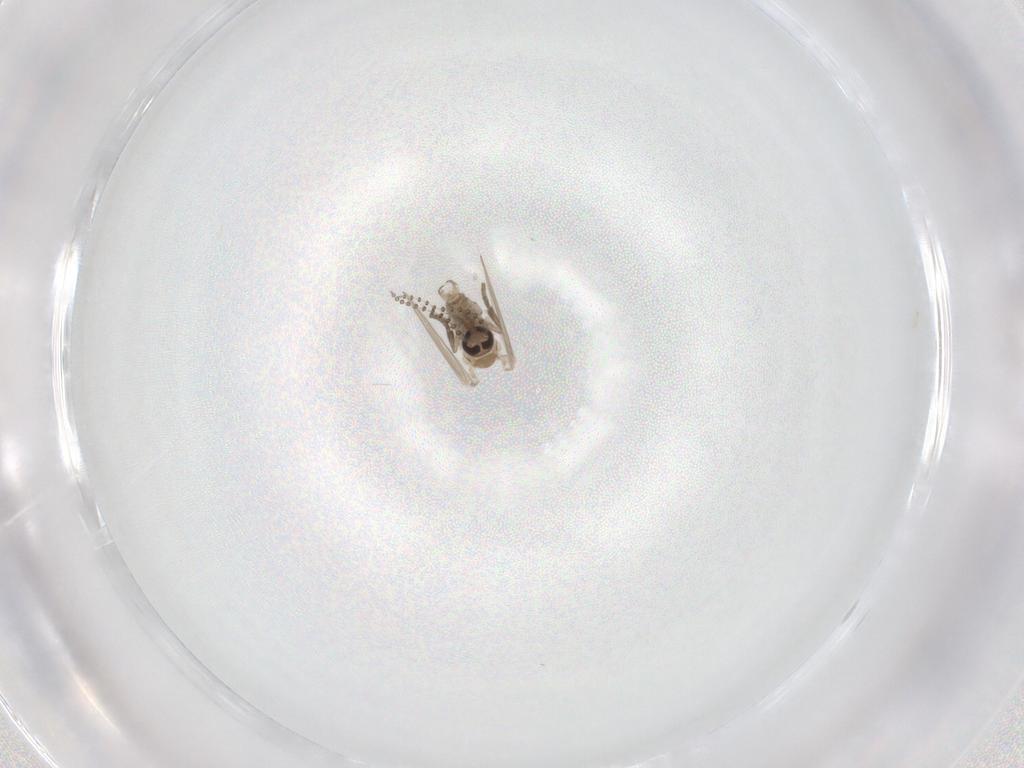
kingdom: Animalia
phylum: Arthropoda
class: Insecta
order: Diptera
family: Psychodidae
